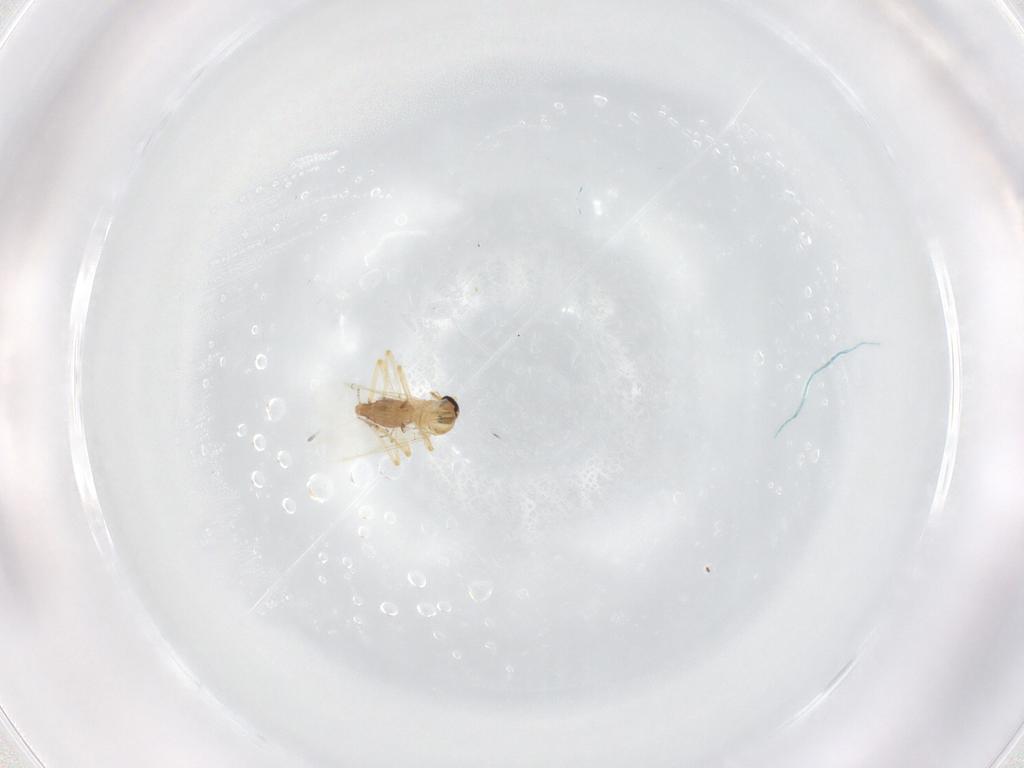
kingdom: Animalia
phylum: Arthropoda
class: Insecta
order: Diptera
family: Ceratopogonidae
